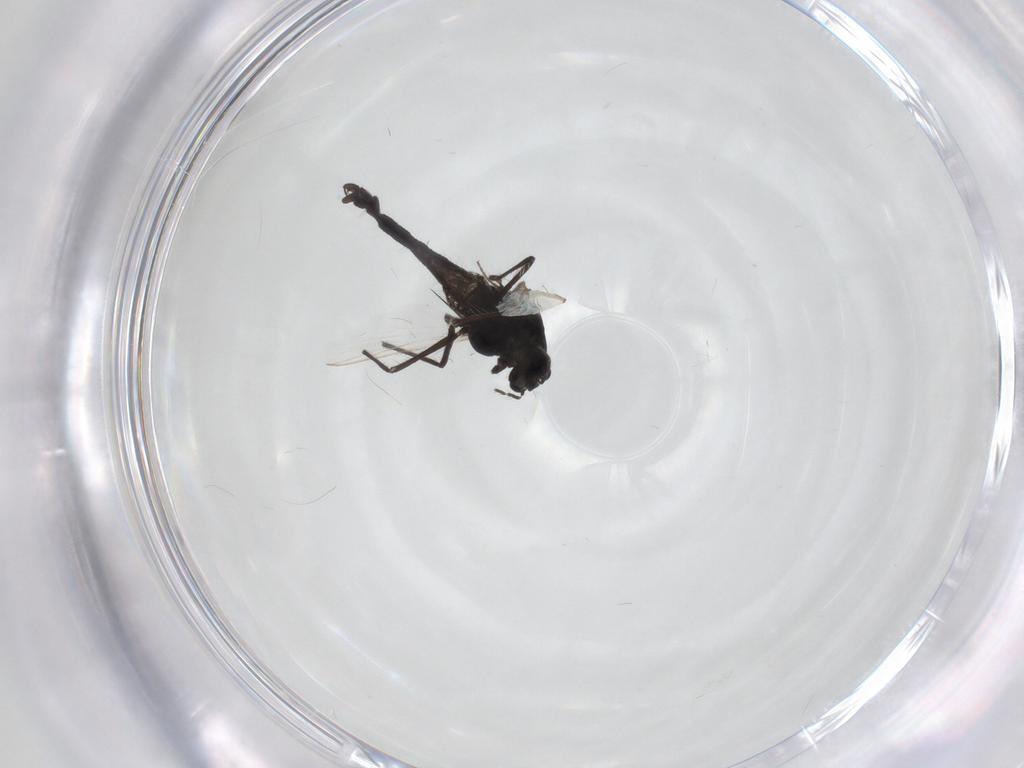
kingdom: Animalia
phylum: Arthropoda
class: Insecta
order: Diptera
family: Chironomidae
